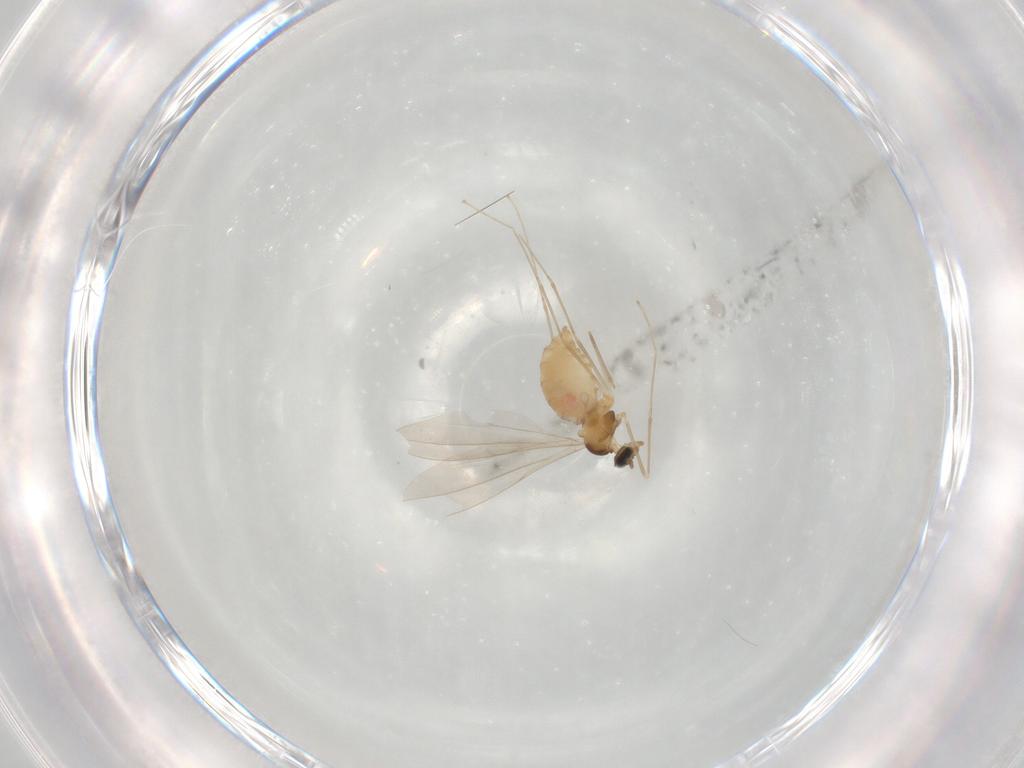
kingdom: Animalia
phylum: Arthropoda
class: Insecta
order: Diptera
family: Cecidomyiidae
